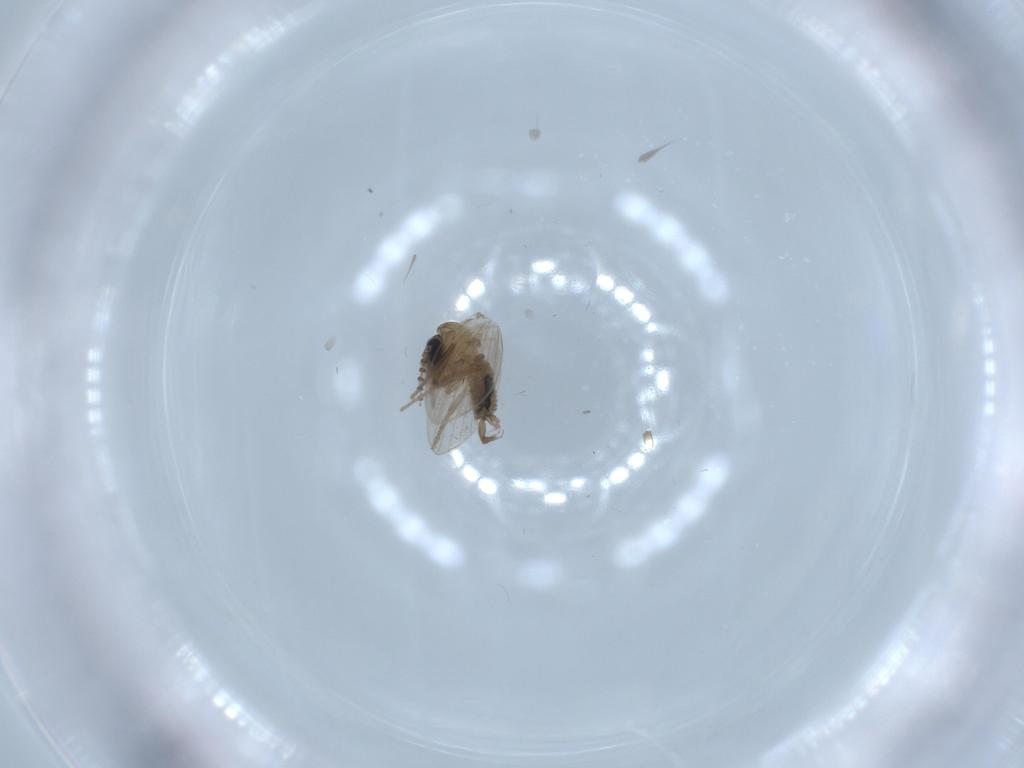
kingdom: Animalia
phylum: Arthropoda
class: Insecta
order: Diptera
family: Psychodidae
